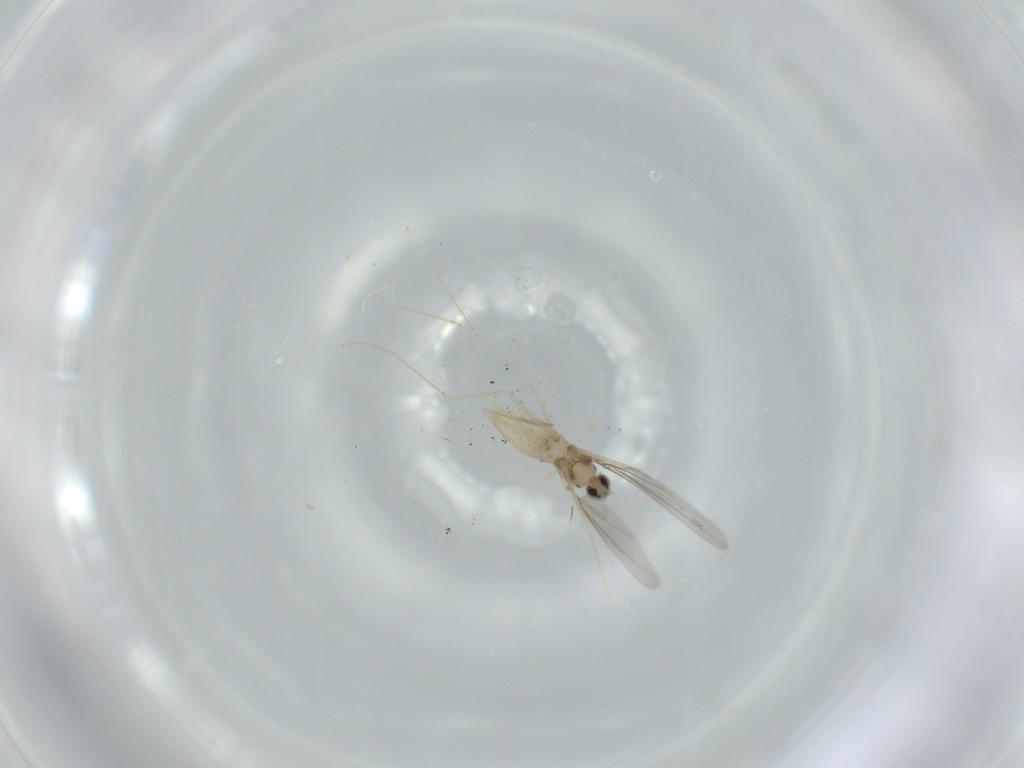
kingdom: Animalia
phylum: Arthropoda
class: Insecta
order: Diptera
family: Cecidomyiidae
